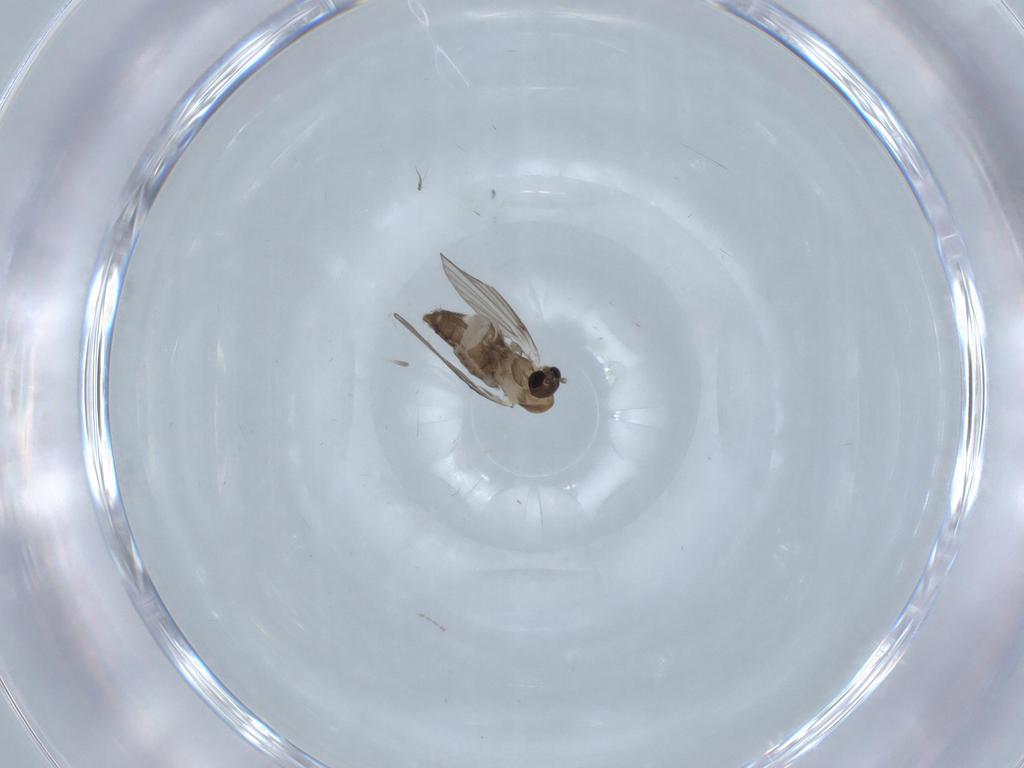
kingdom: Animalia
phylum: Arthropoda
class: Insecta
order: Diptera
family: Cecidomyiidae
